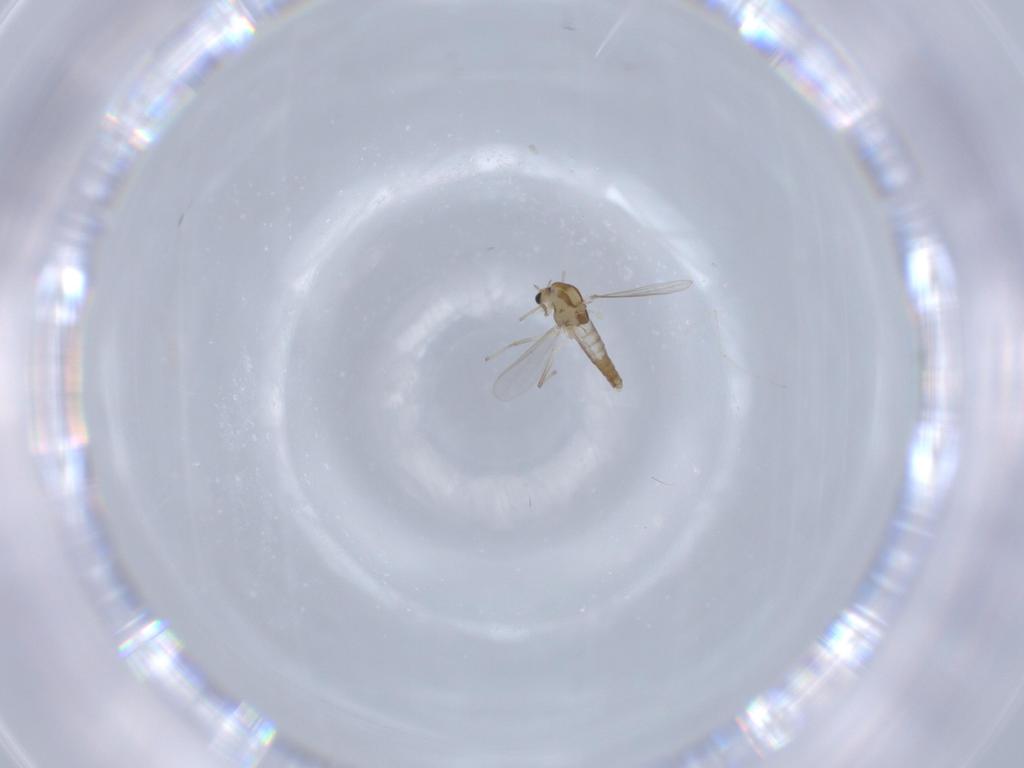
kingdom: Animalia
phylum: Arthropoda
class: Insecta
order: Diptera
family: Chironomidae
